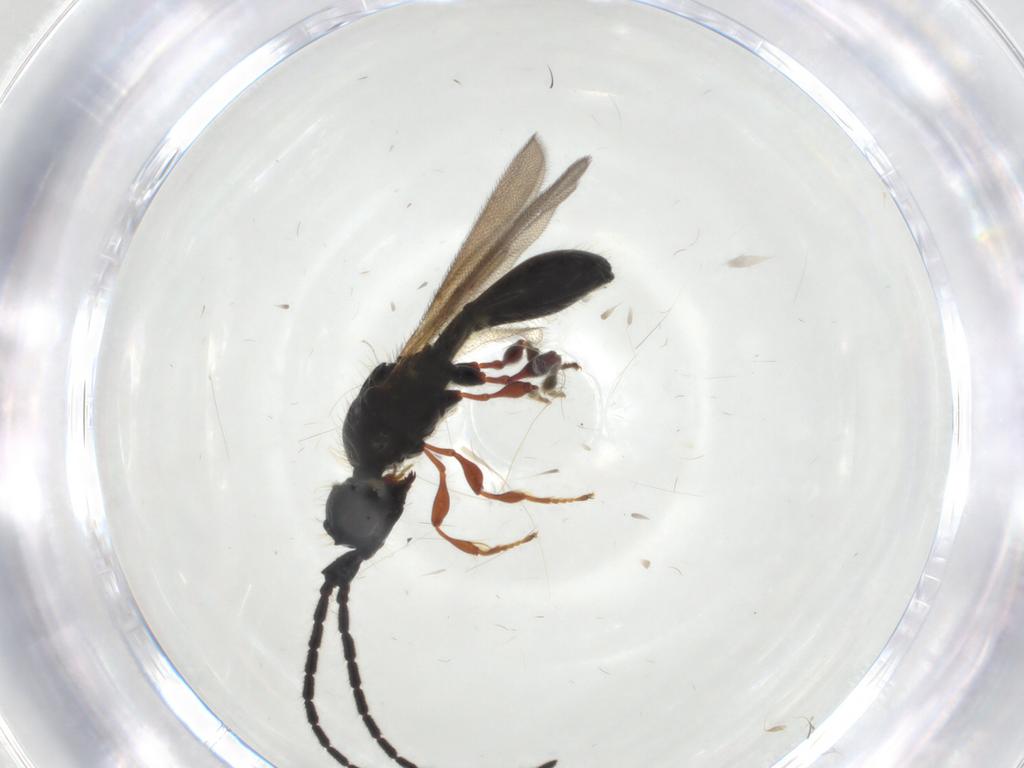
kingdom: Animalia
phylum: Arthropoda
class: Insecta
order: Hymenoptera
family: Diapriidae
